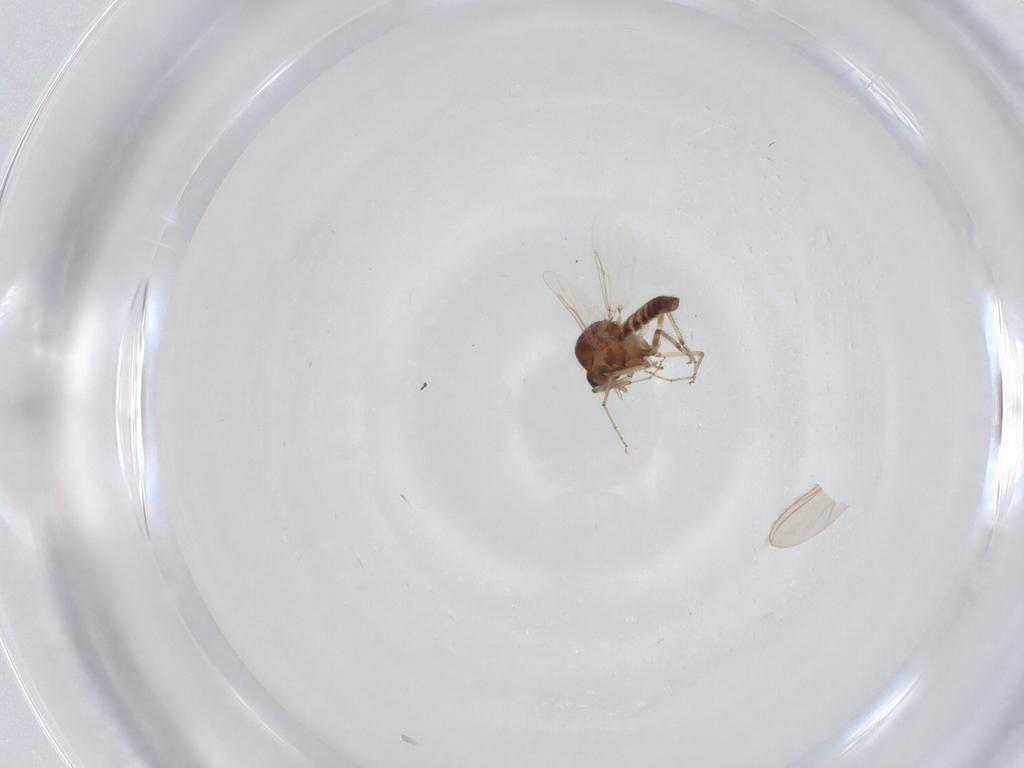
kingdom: Animalia
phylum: Arthropoda
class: Insecta
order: Diptera
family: Ceratopogonidae
